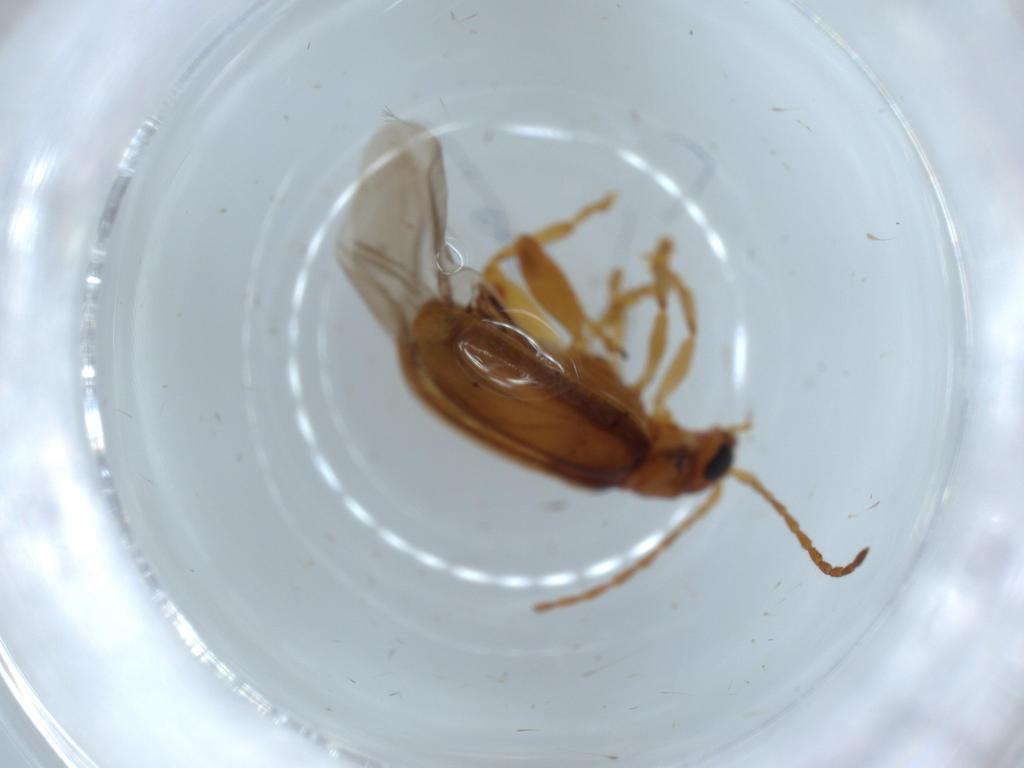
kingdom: Animalia
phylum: Arthropoda
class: Insecta
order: Coleoptera
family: Chrysomelidae
